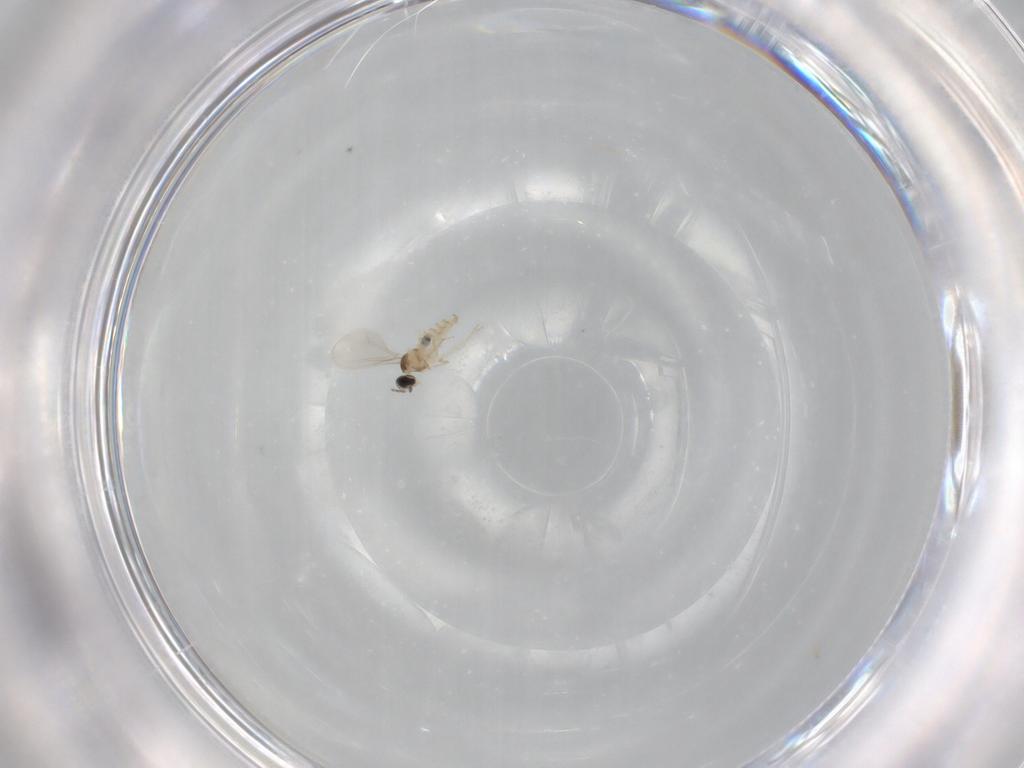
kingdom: Animalia
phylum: Arthropoda
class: Insecta
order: Diptera
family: Cecidomyiidae
